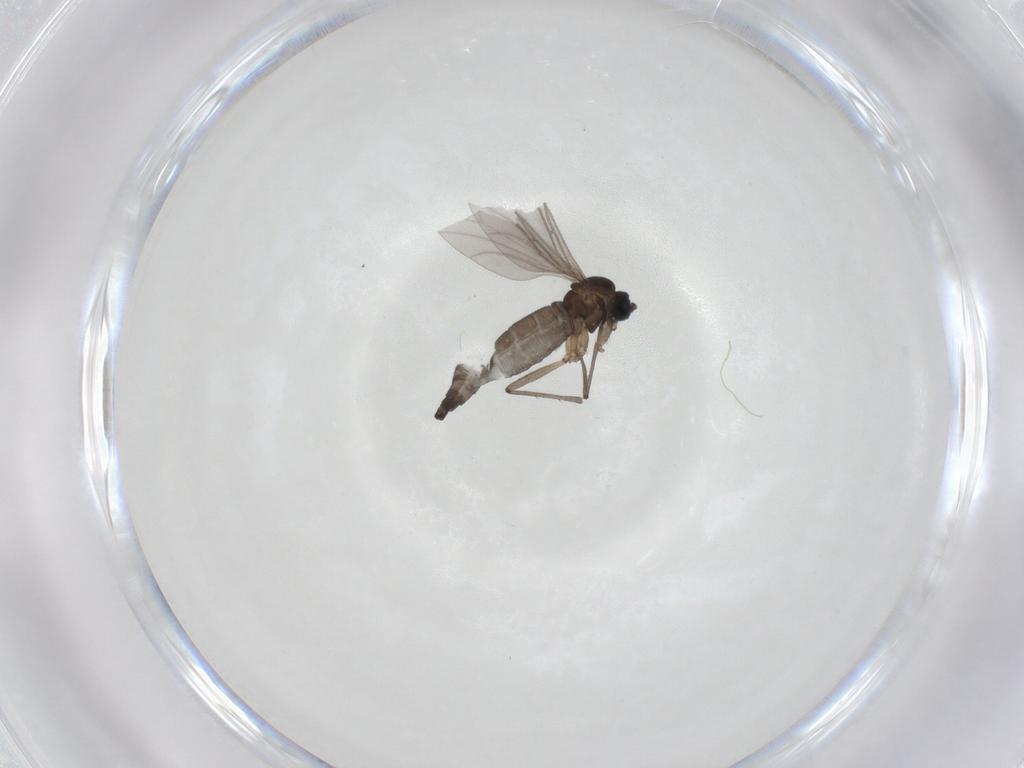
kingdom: Animalia
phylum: Arthropoda
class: Insecta
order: Diptera
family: Sciaridae
